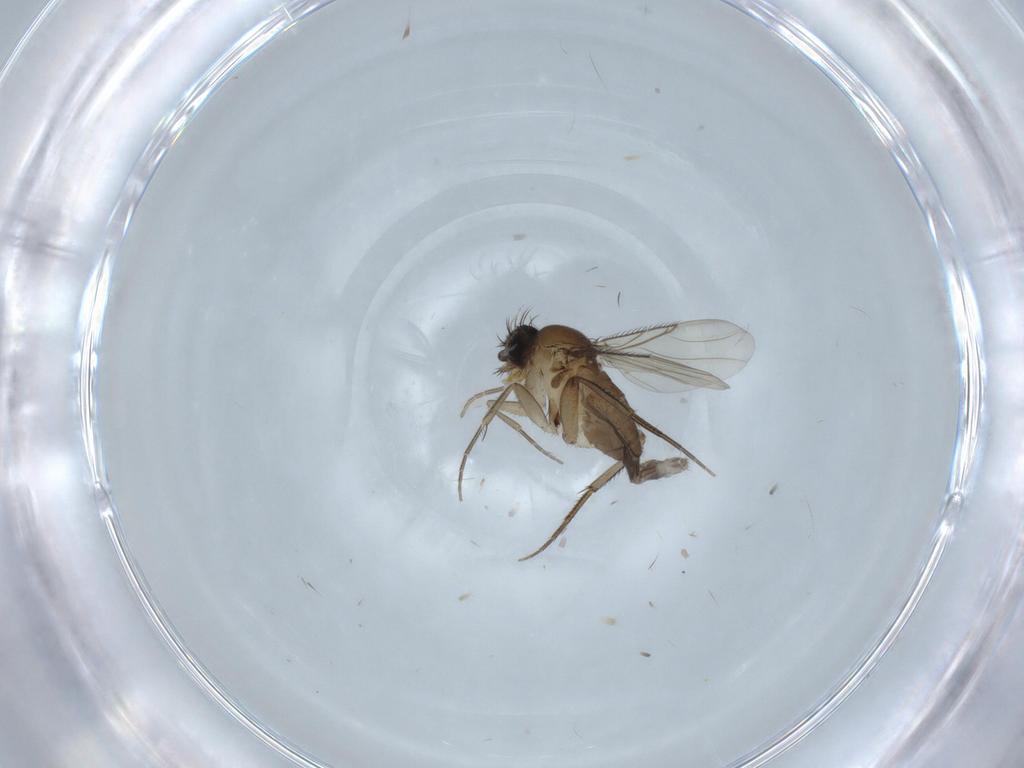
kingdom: Animalia
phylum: Arthropoda
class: Insecta
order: Diptera
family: Phoridae
